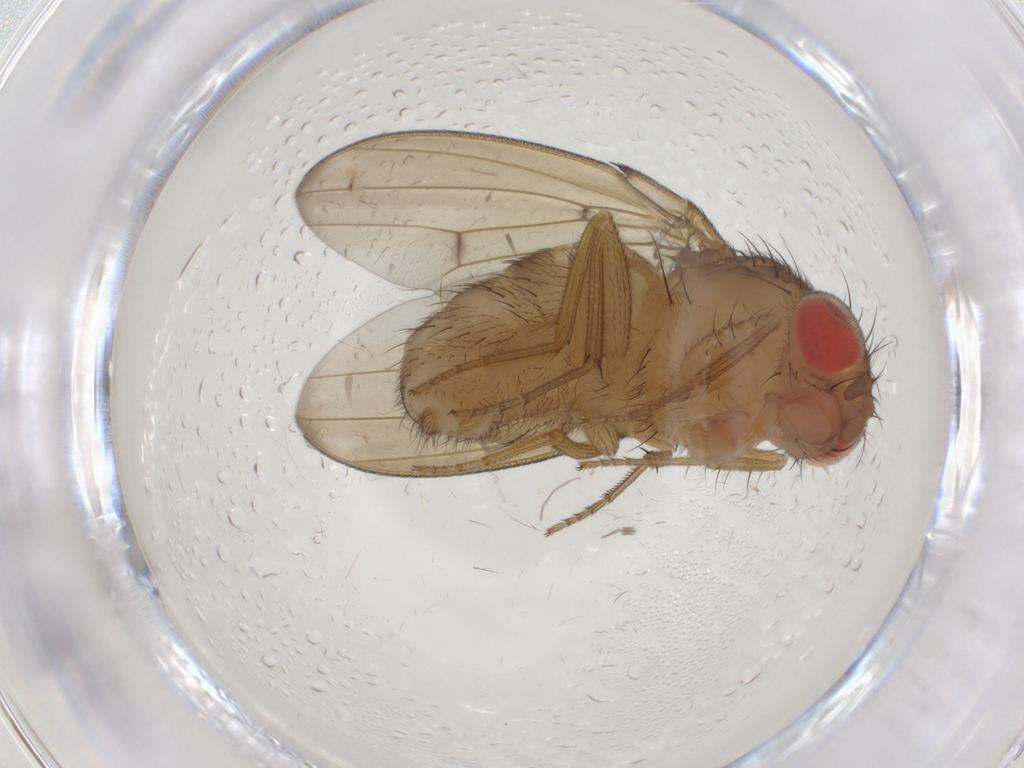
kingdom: Animalia
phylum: Arthropoda
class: Insecta
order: Diptera
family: Drosophilidae
